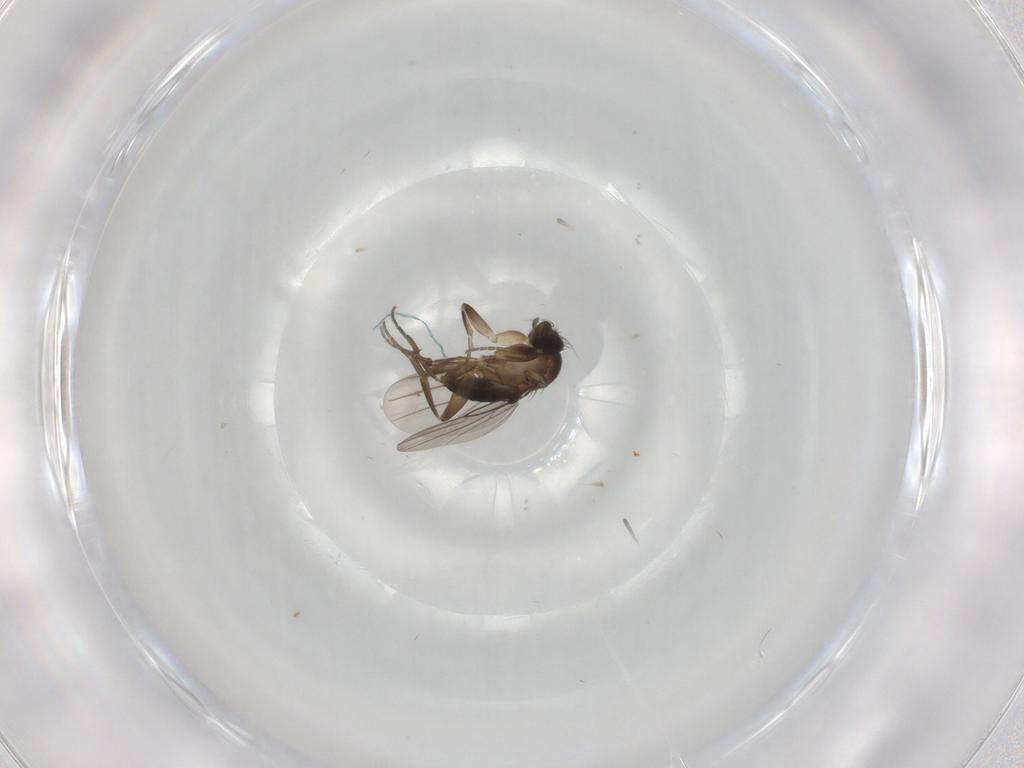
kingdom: Animalia
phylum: Arthropoda
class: Insecta
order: Diptera
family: Phoridae
